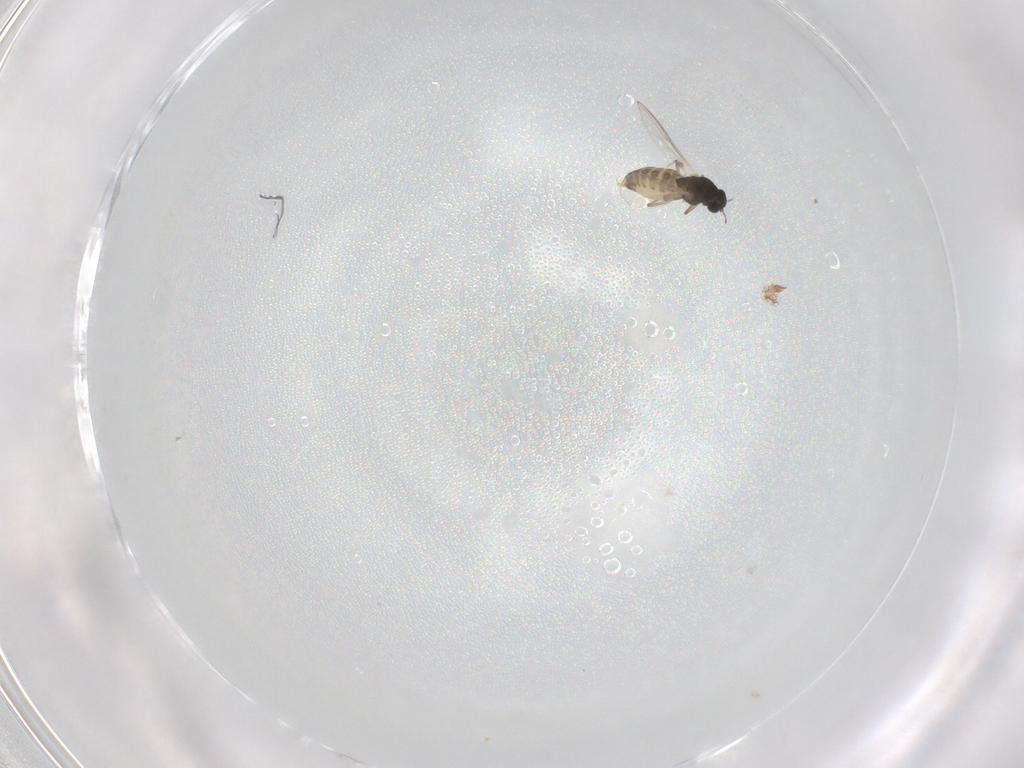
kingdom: Animalia
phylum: Arthropoda
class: Insecta
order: Diptera
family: Chironomidae
